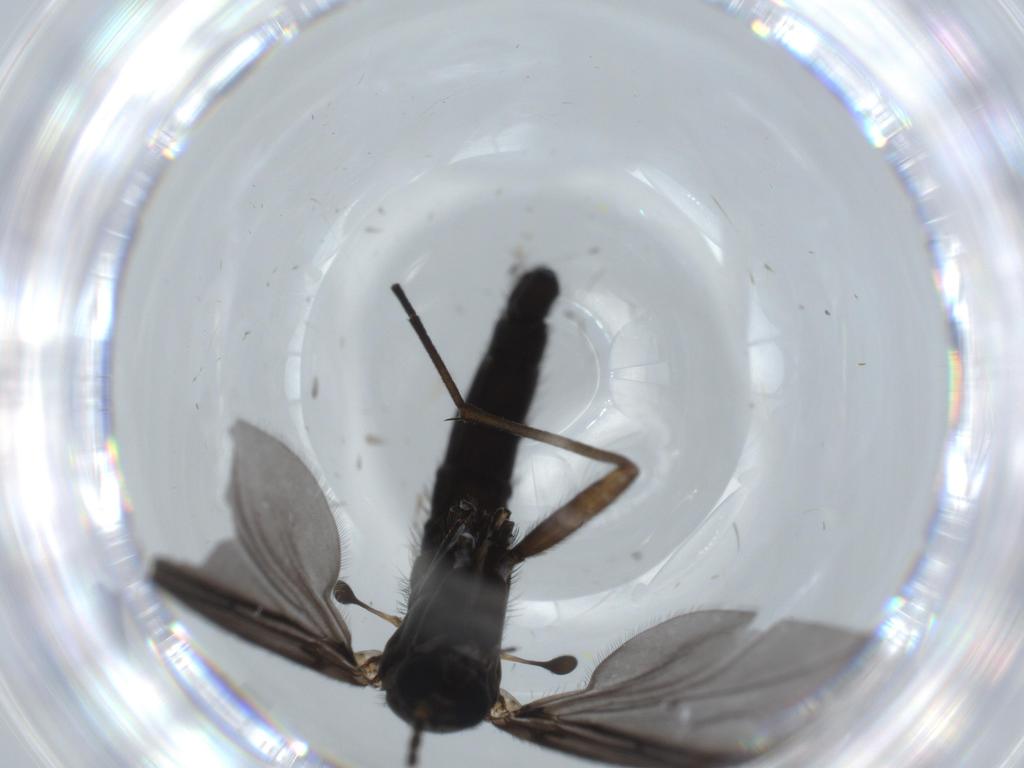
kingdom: Animalia
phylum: Arthropoda
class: Insecta
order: Diptera
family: Sciaridae
